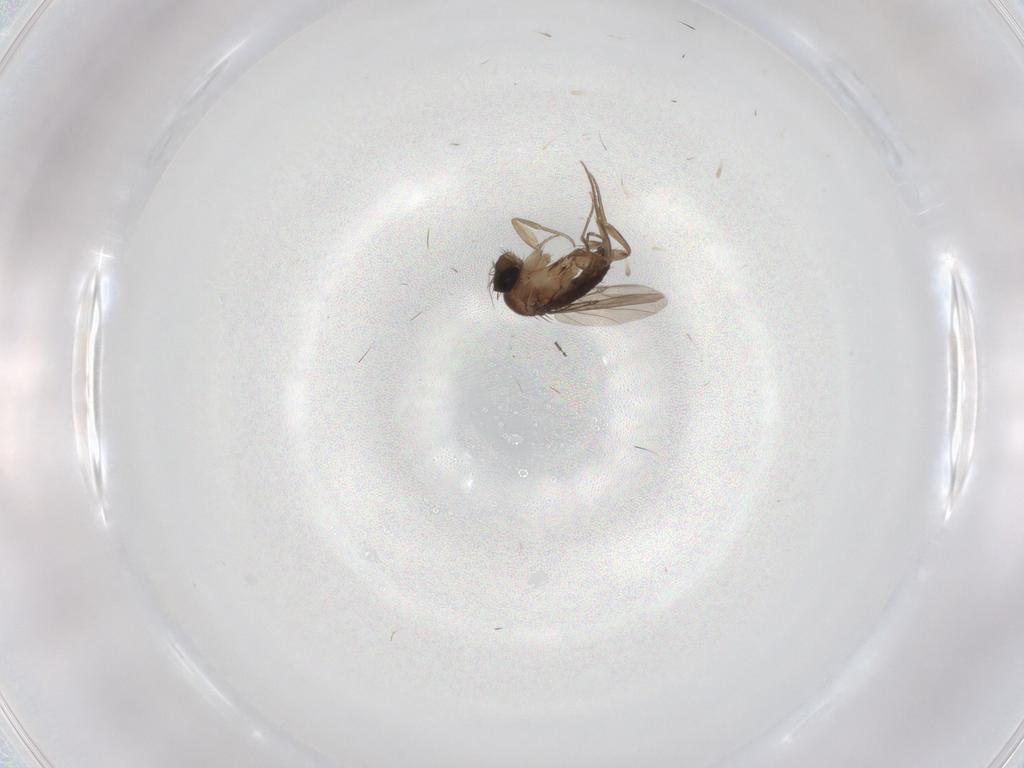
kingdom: Animalia
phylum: Arthropoda
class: Insecta
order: Diptera
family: Phoridae
